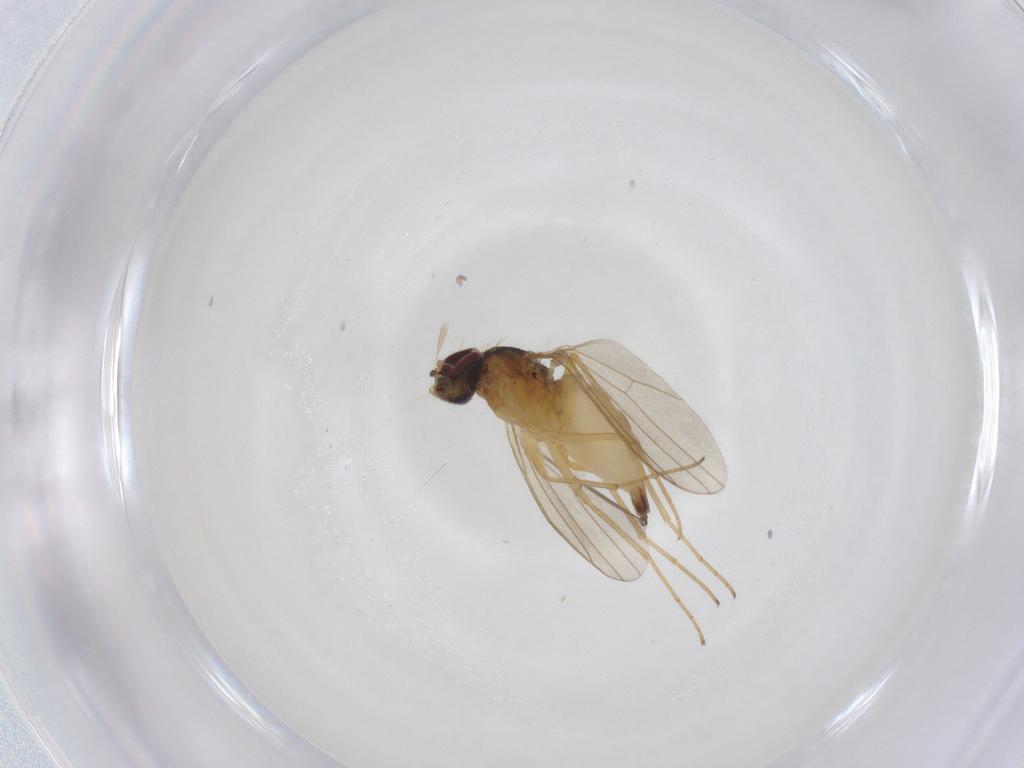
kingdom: Animalia
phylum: Arthropoda
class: Insecta
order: Diptera
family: Dolichopodidae
